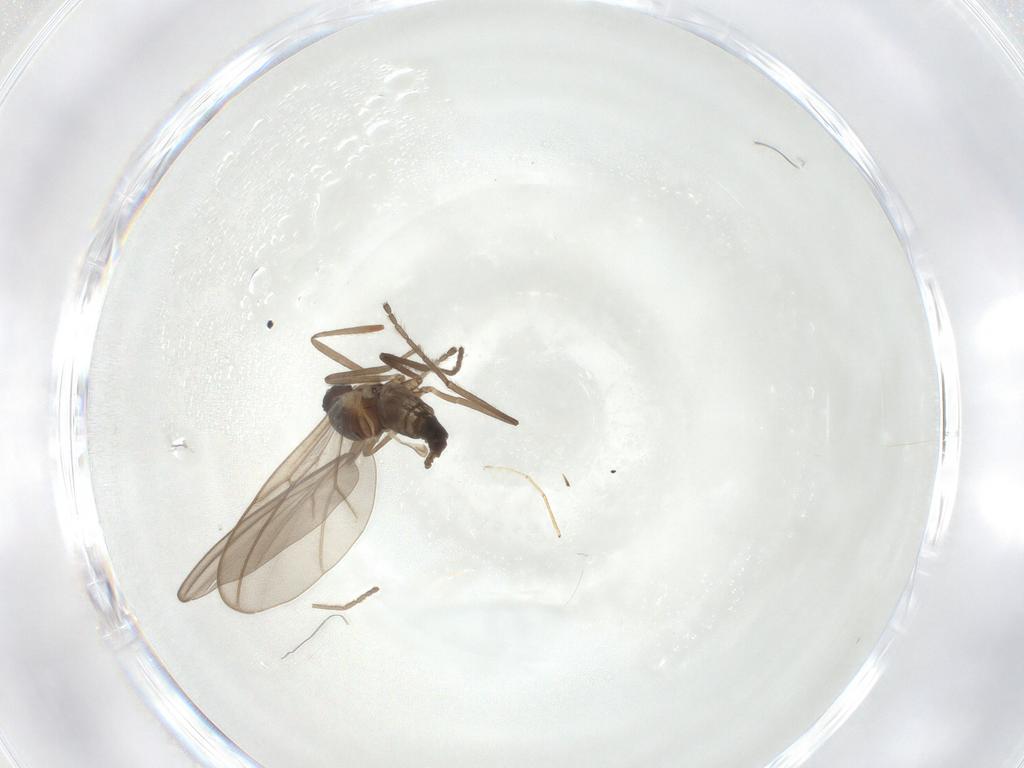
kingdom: Animalia
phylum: Arthropoda
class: Insecta
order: Diptera
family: Cecidomyiidae
